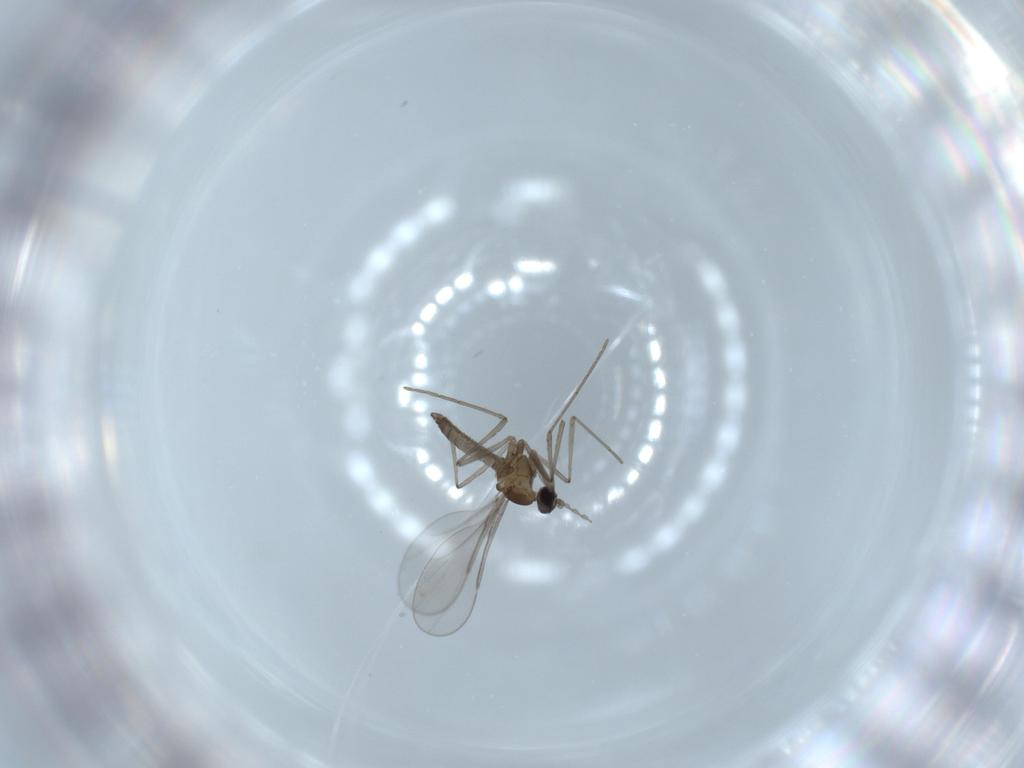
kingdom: Animalia
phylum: Arthropoda
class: Insecta
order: Diptera
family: Cecidomyiidae
